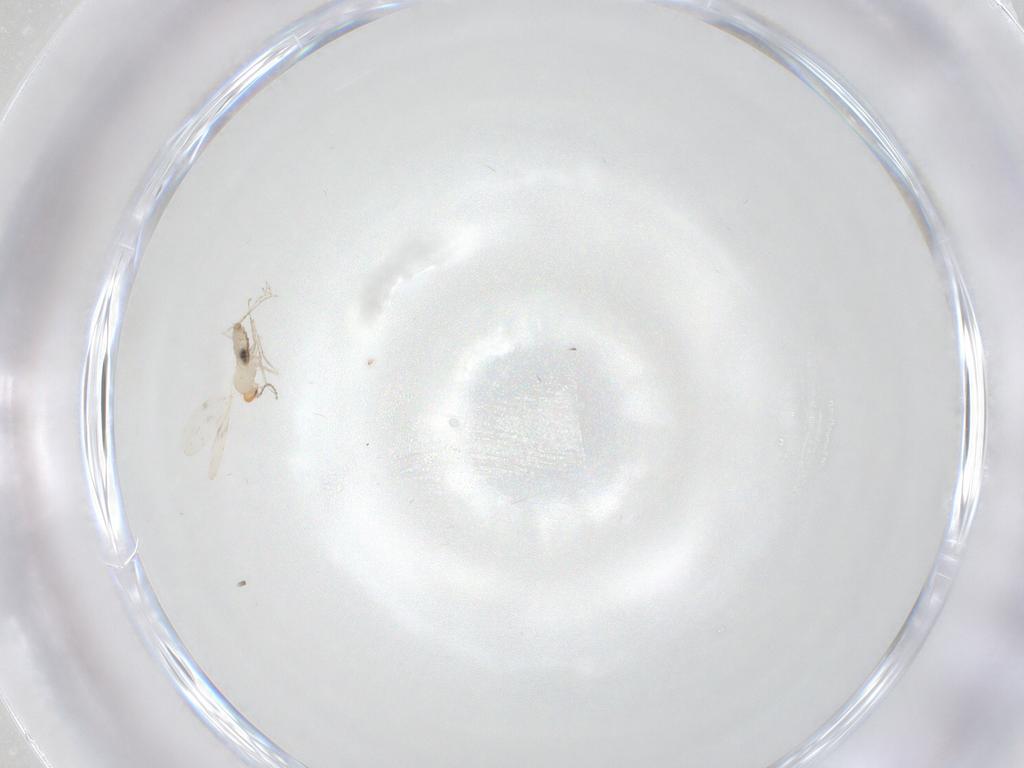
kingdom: Animalia
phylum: Arthropoda
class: Insecta
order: Diptera
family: Cecidomyiidae
